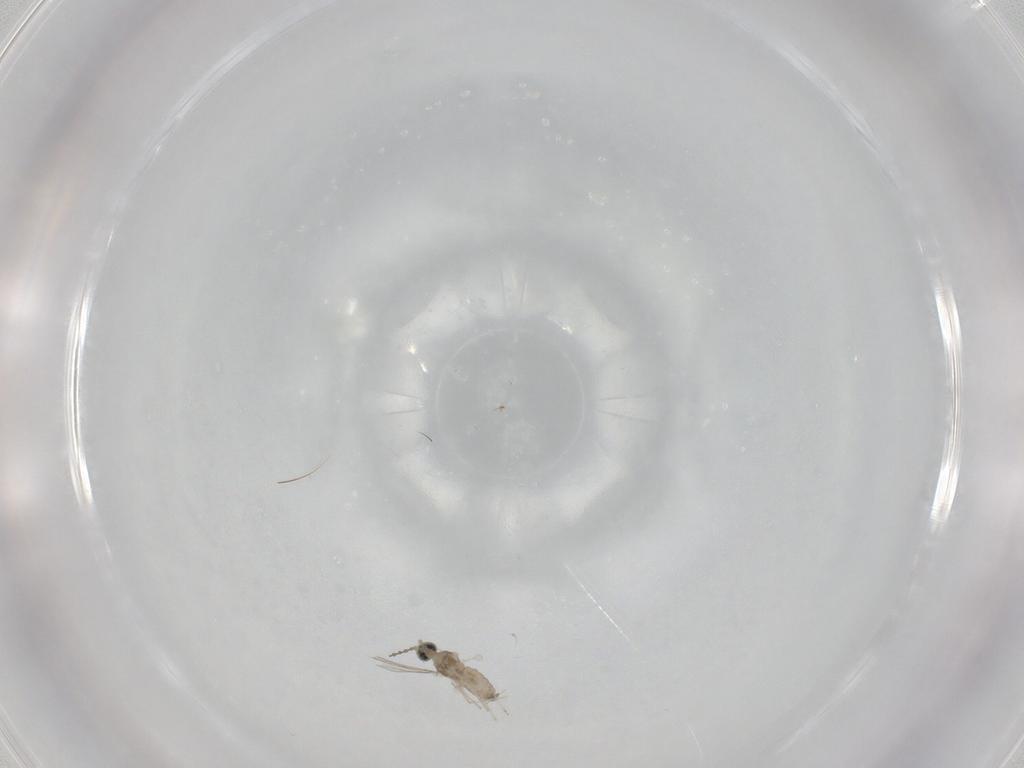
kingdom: Animalia
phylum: Arthropoda
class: Insecta
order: Diptera
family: Cecidomyiidae
